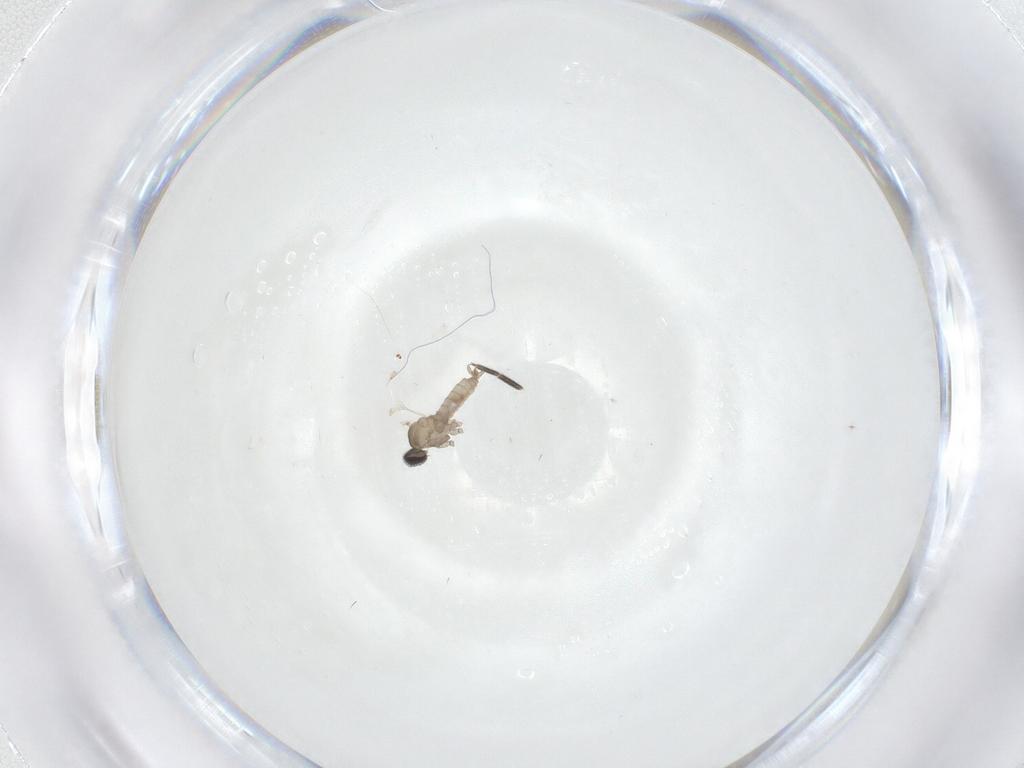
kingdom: Animalia
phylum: Arthropoda
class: Insecta
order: Diptera
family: Cecidomyiidae
